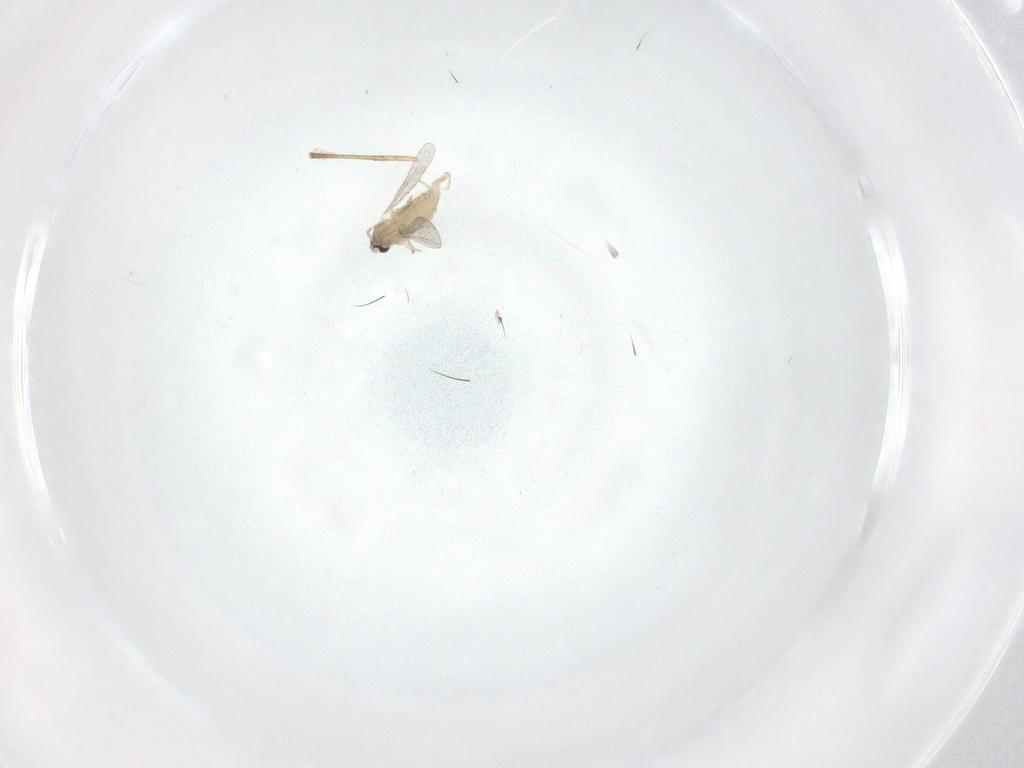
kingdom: Animalia
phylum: Arthropoda
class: Insecta
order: Diptera
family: Cecidomyiidae
